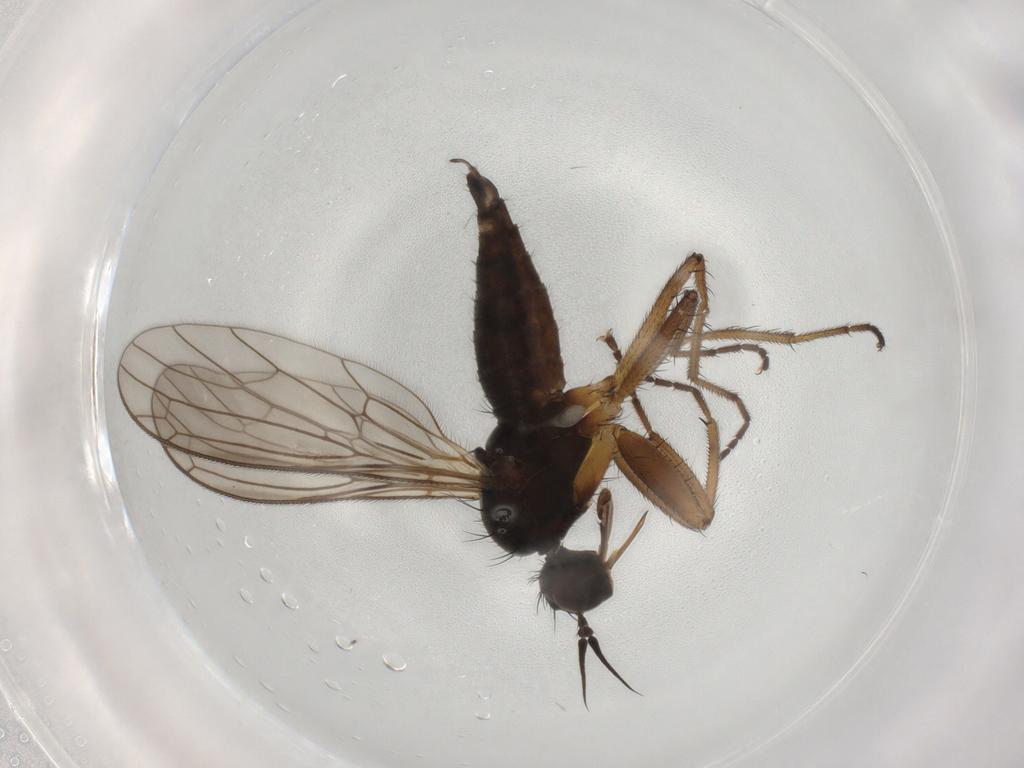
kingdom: Animalia
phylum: Arthropoda
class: Insecta
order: Diptera
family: Empididae
